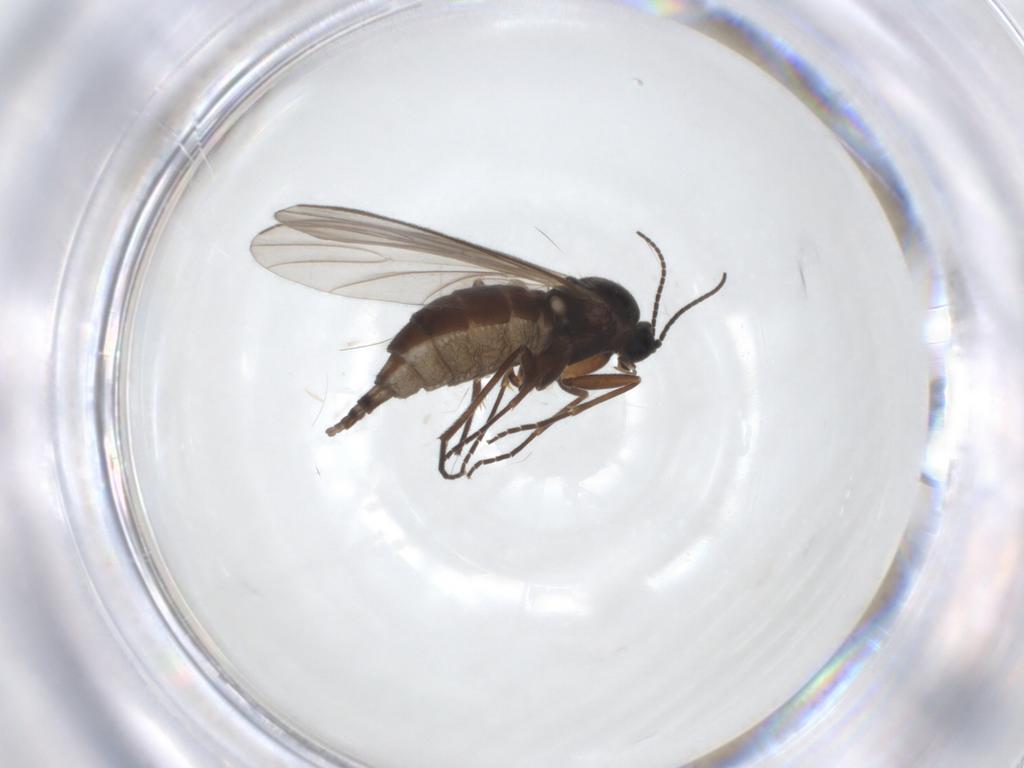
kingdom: Animalia
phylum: Arthropoda
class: Insecta
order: Diptera
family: Sciaridae
